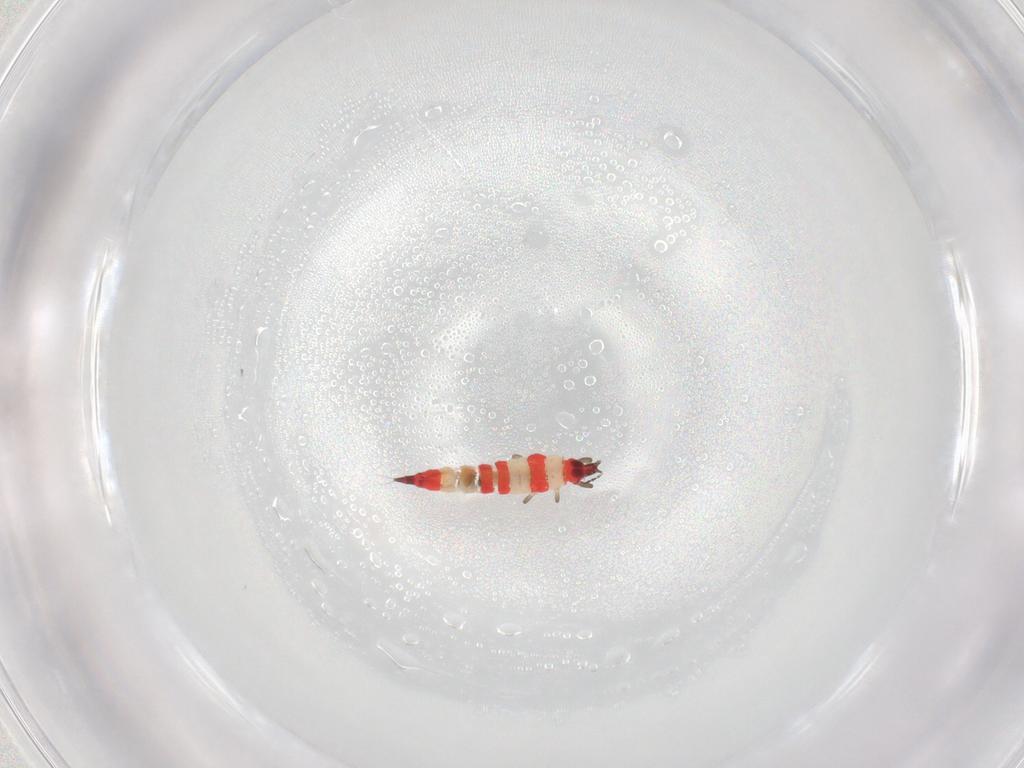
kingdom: Animalia
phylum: Arthropoda
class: Insecta
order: Thysanoptera
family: Phlaeothripidae
